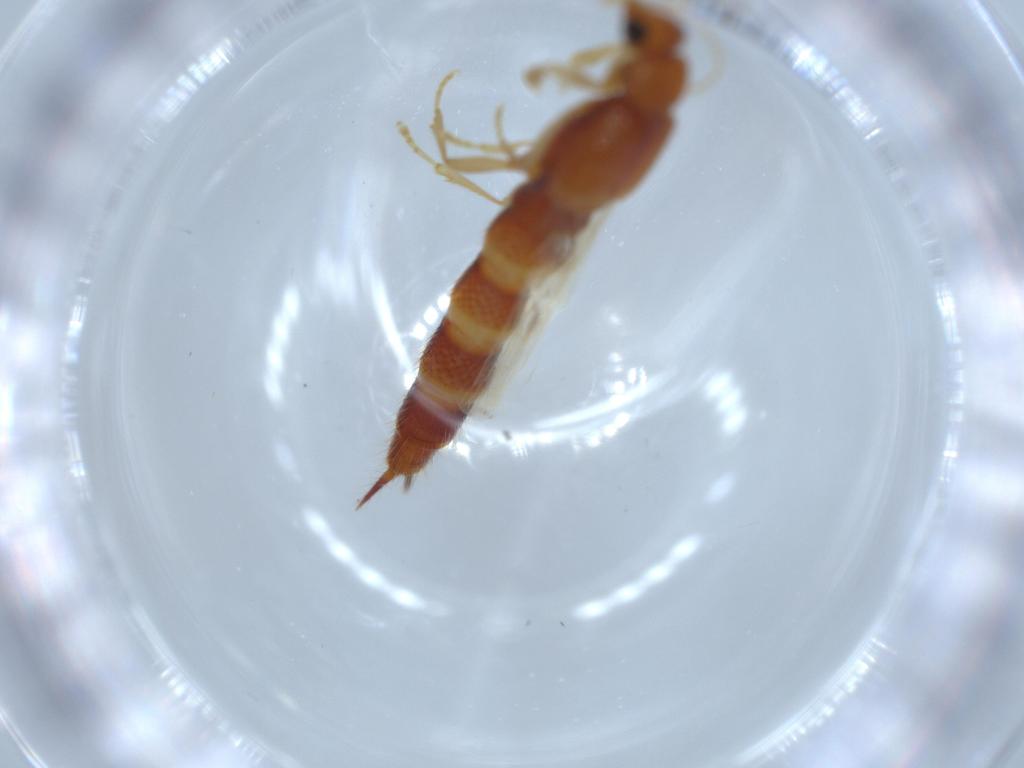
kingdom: Animalia
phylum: Arthropoda
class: Insecta
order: Coleoptera
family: Staphylinidae
